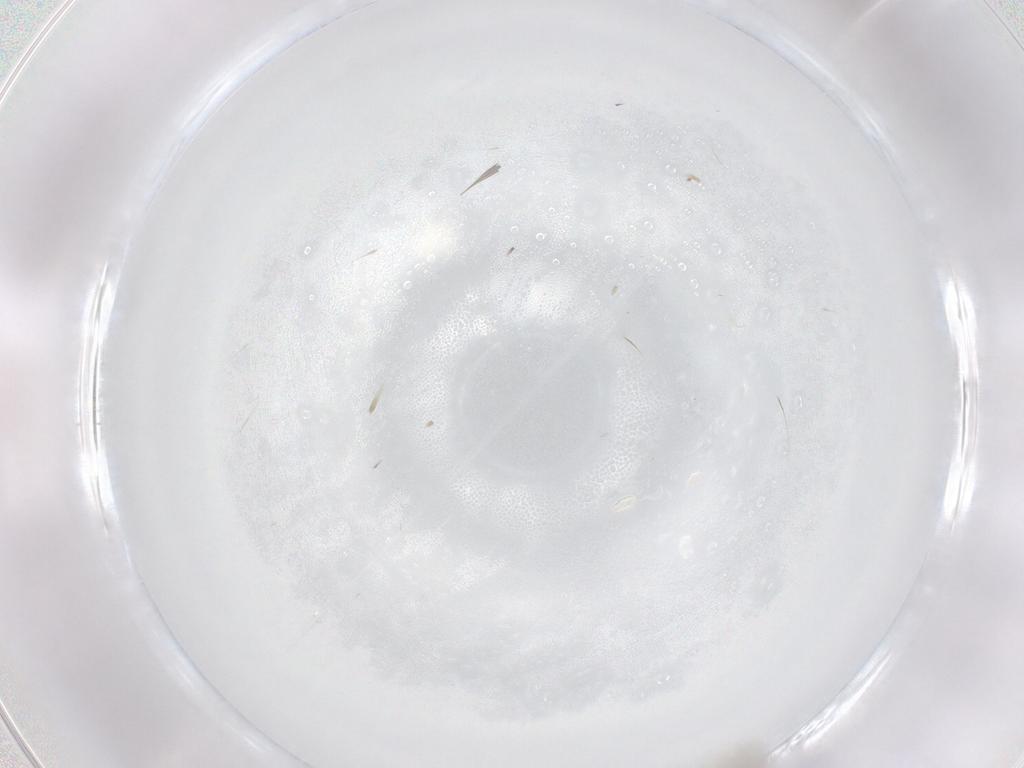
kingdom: Animalia
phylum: Arthropoda
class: Insecta
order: Diptera
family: Cecidomyiidae
